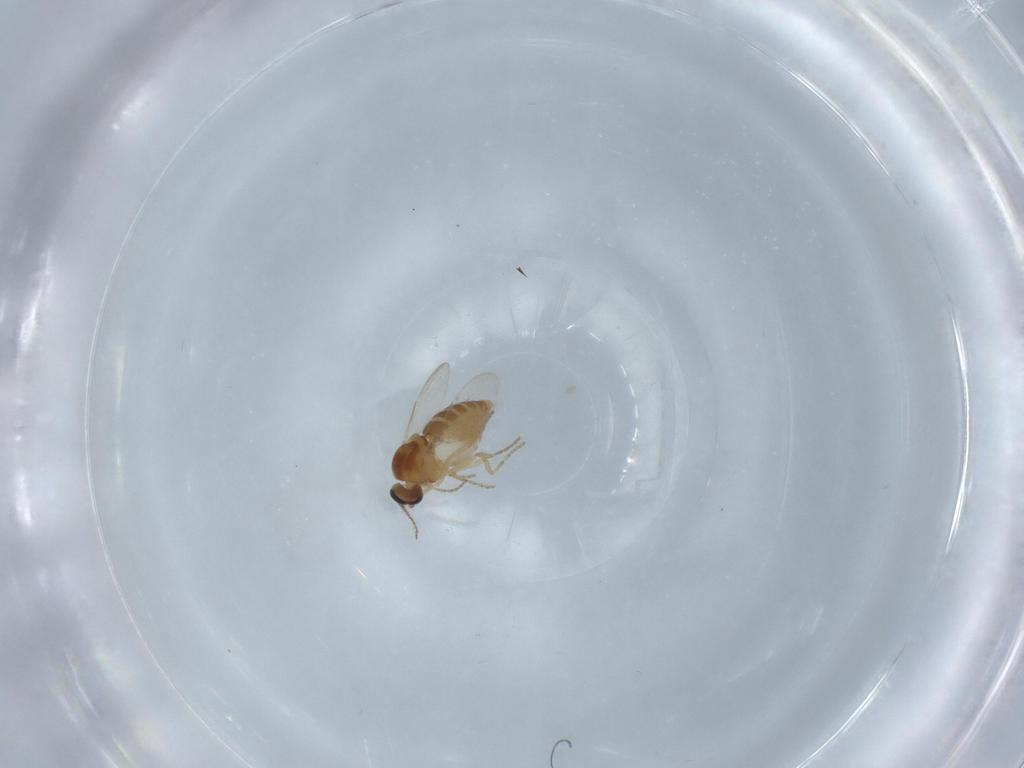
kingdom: Animalia
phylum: Arthropoda
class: Insecta
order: Diptera
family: Ceratopogonidae
